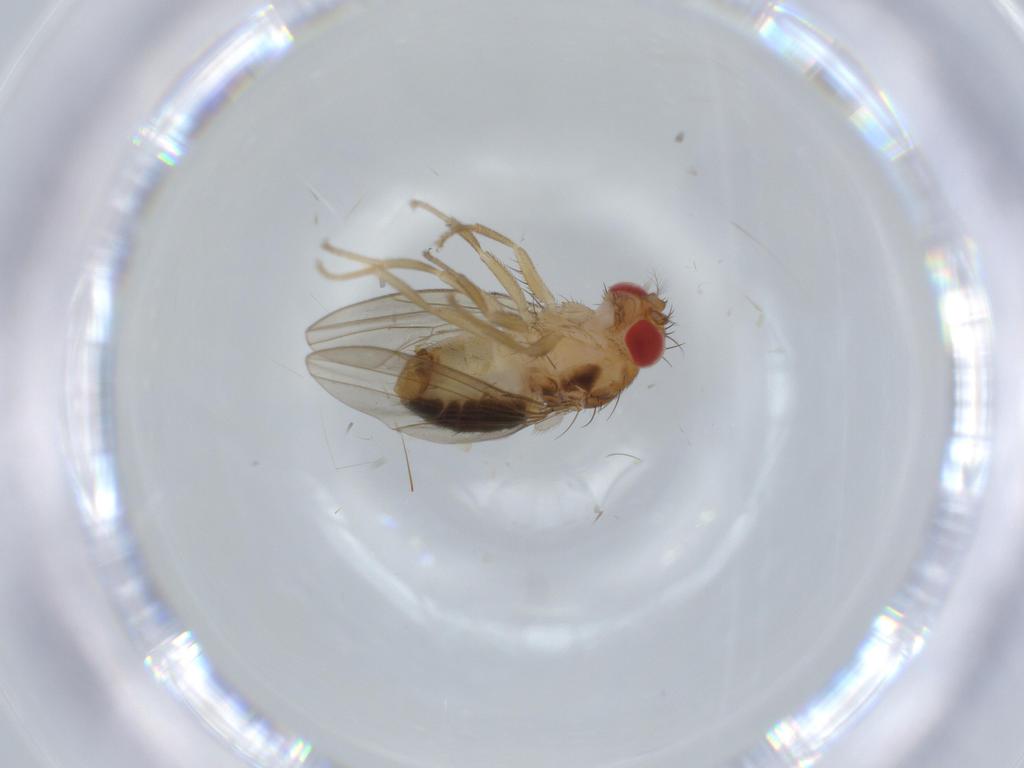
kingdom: Animalia
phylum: Arthropoda
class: Insecta
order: Diptera
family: Drosophilidae
